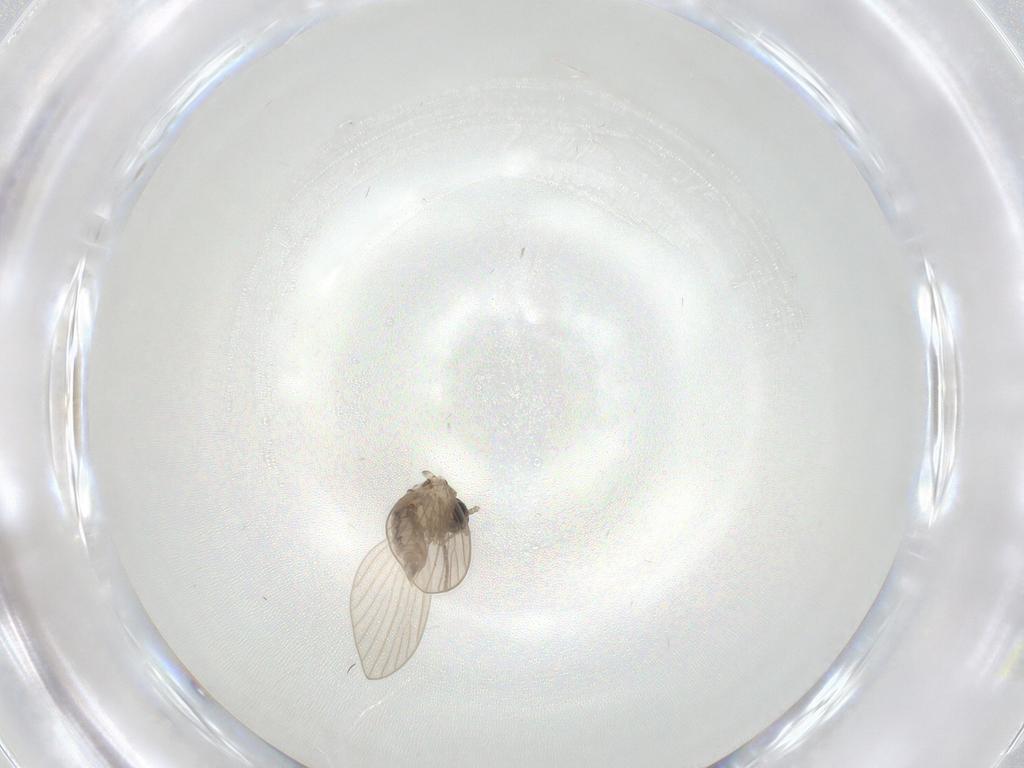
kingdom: Animalia
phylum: Arthropoda
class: Insecta
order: Diptera
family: Psychodidae
